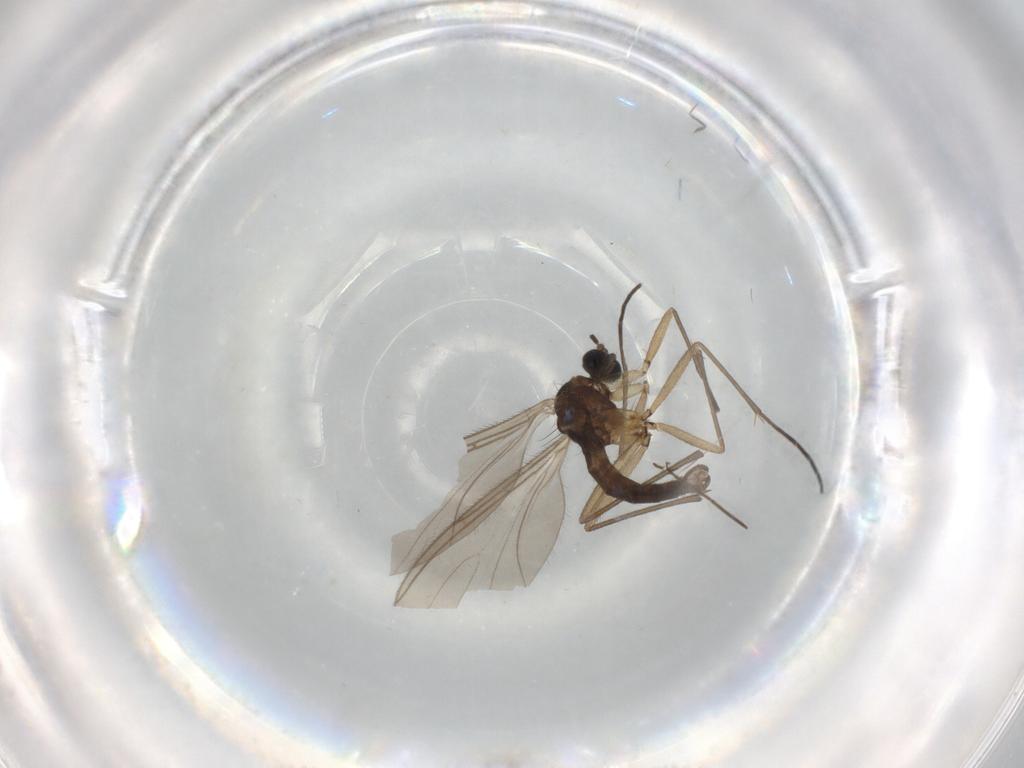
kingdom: Animalia
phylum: Arthropoda
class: Insecta
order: Diptera
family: Sciaridae
